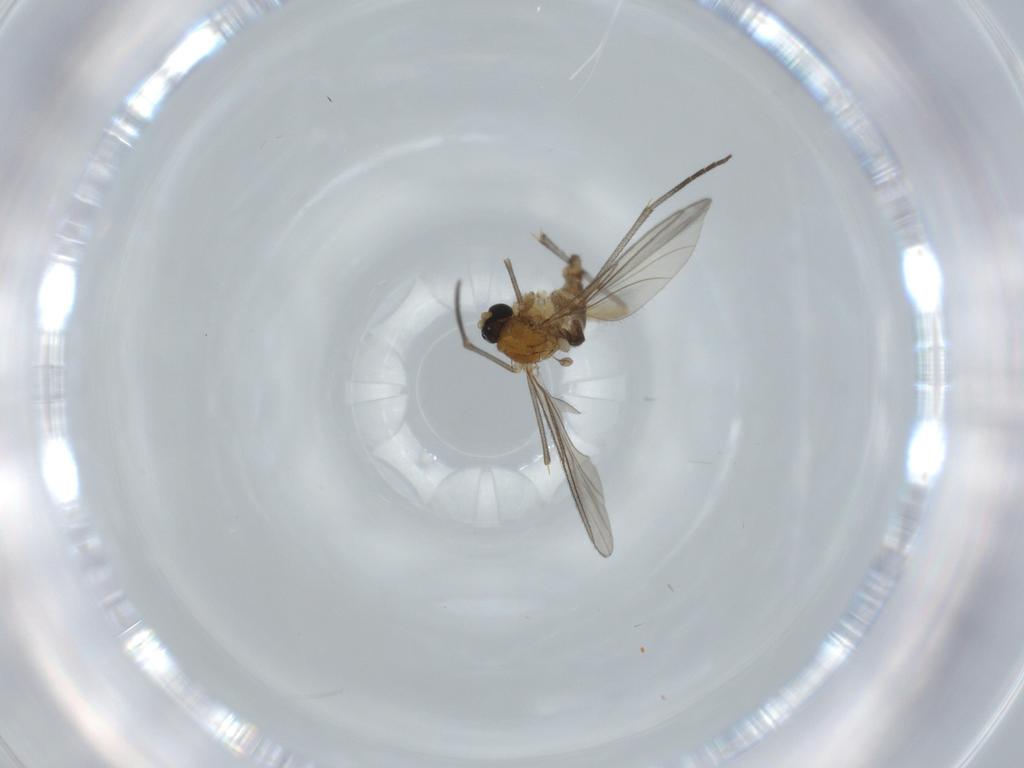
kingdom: Animalia
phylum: Arthropoda
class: Insecta
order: Diptera
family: Sciaridae
